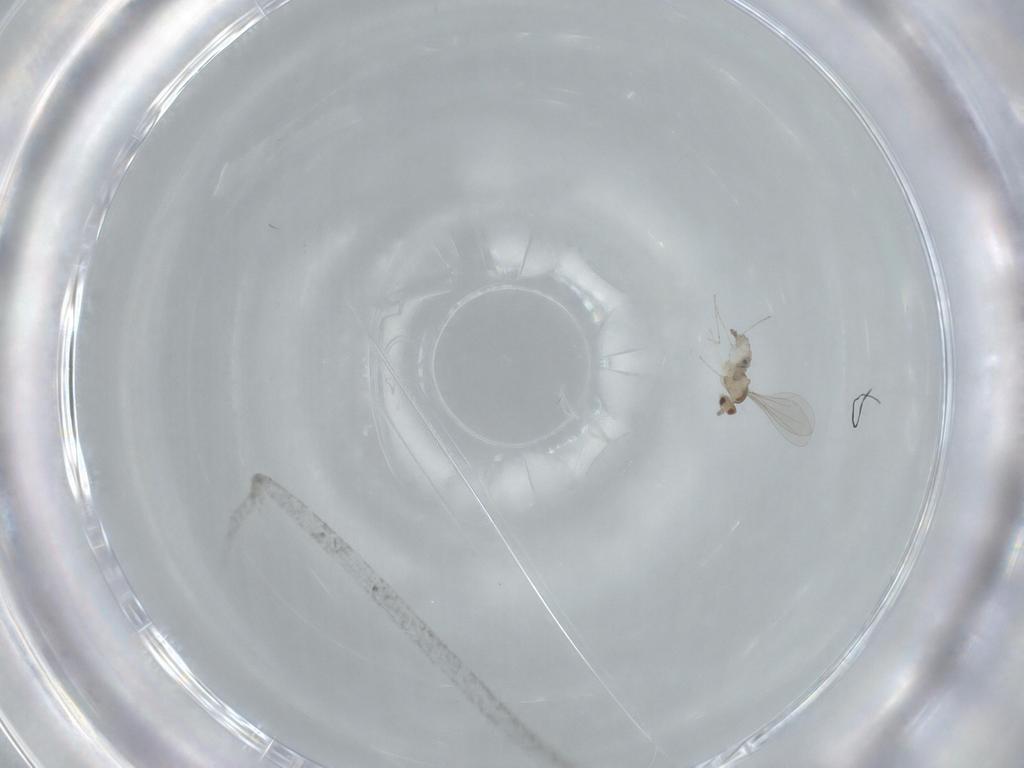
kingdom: Animalia
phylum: Arthropoda
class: Insecta
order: Diptera
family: Cecidomyiidae
